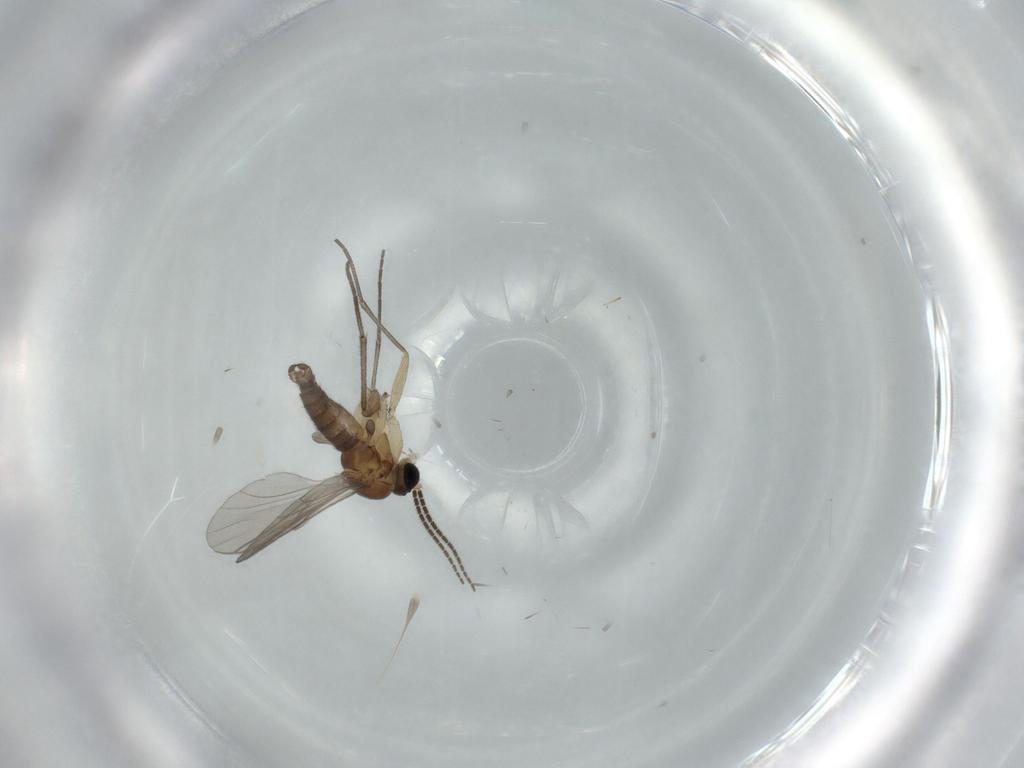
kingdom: Animalia
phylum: Arthropoda
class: Insecta
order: Diptera
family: Sciaridae
